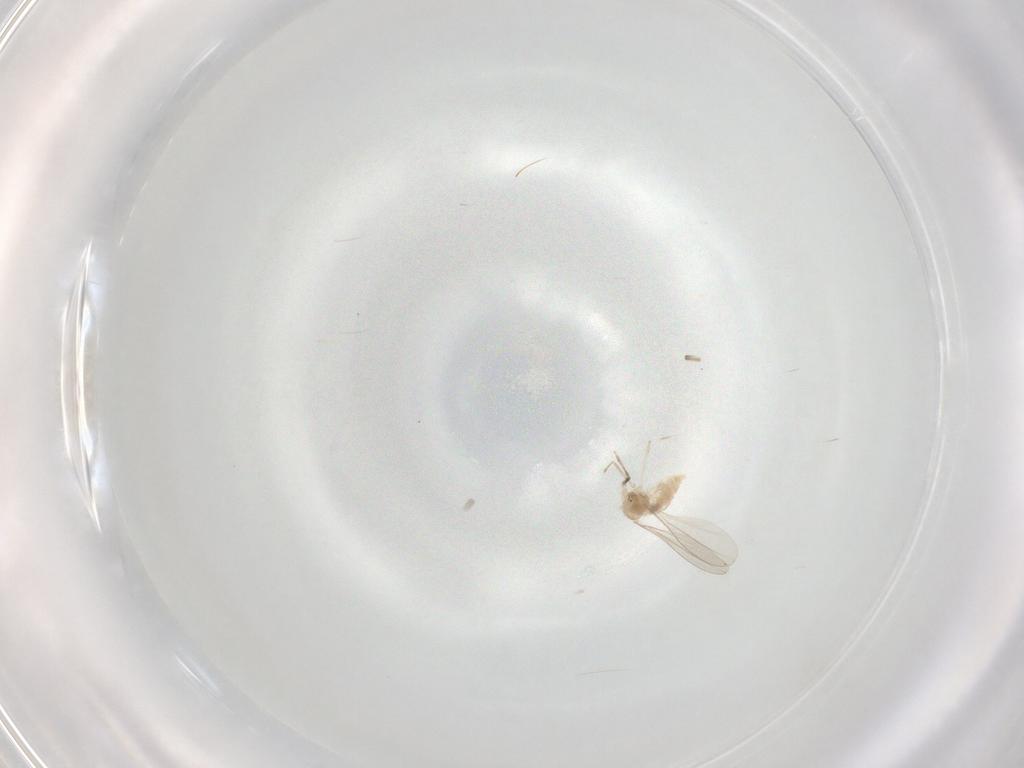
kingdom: Animalia
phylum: Arthropoda
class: Insecta
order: Diptera
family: Cecidomyiidae
